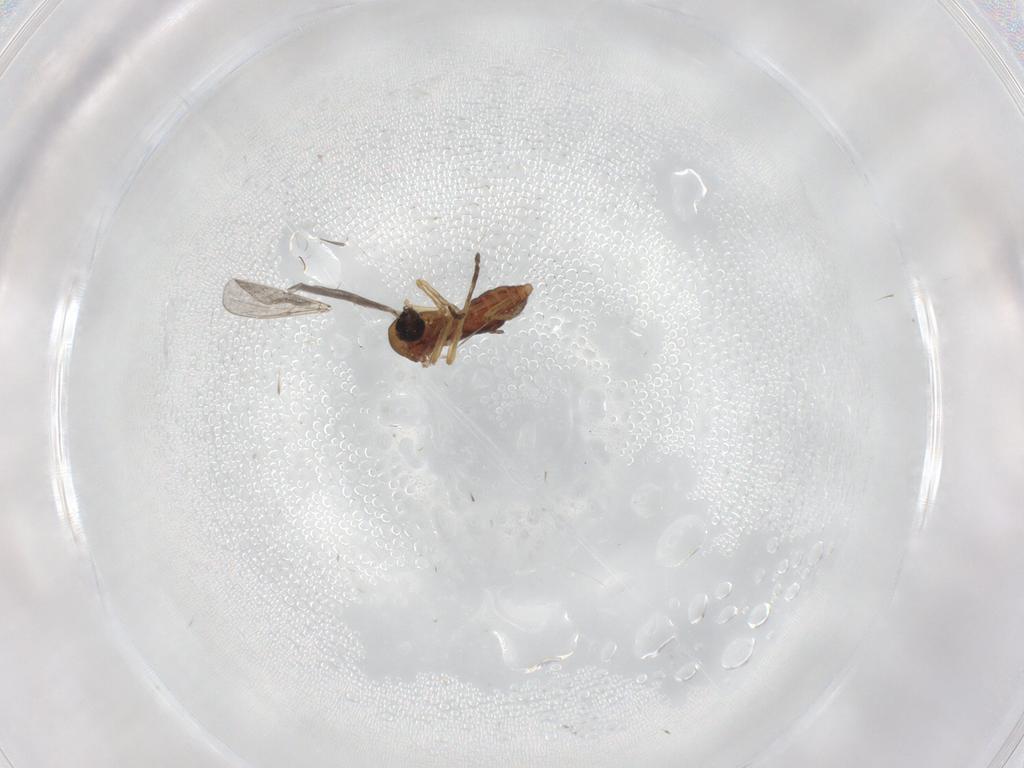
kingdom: Animalia
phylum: Arthropoda
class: Insecta
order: Diptera
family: Ceratopogonidae
